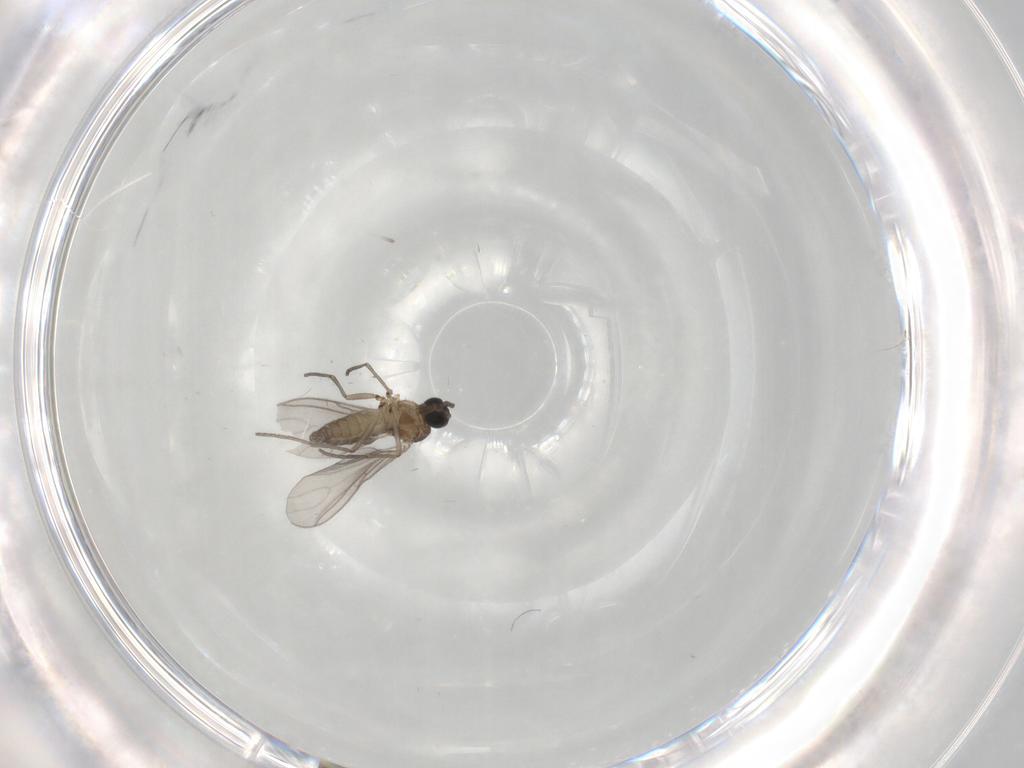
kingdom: Animalia
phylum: Arthropoda
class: Insecta
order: Diptera
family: Sciaridae
